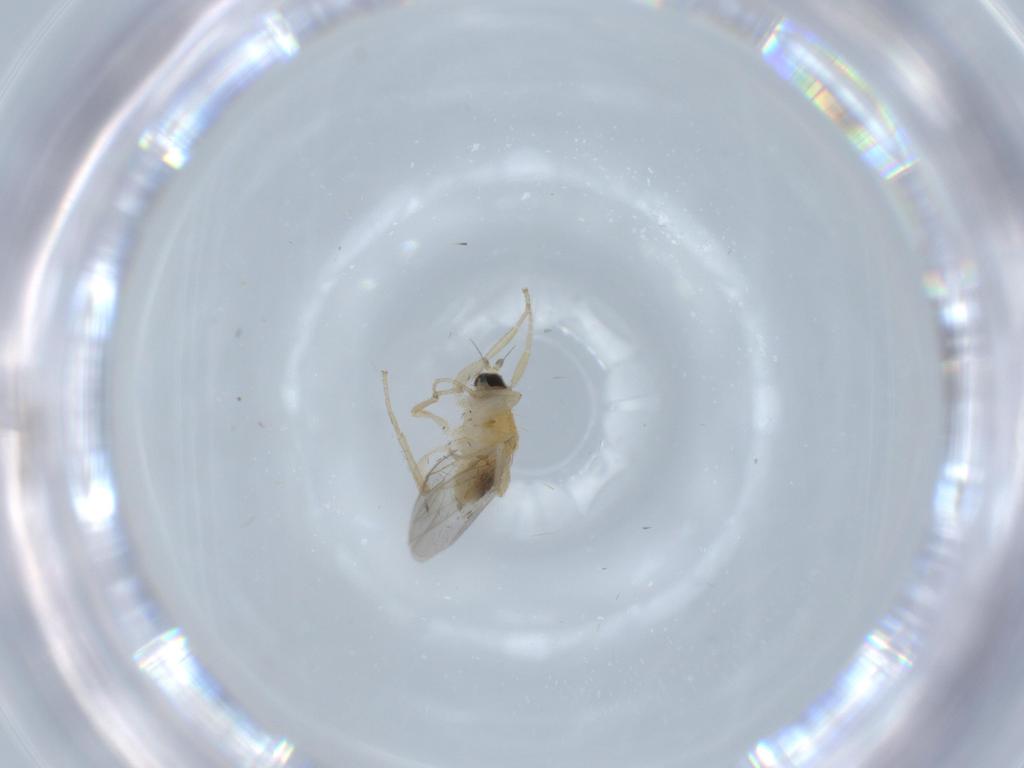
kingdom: Animalia
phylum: Arthropoda
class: Insecta
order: Diptera
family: Hybotidae
